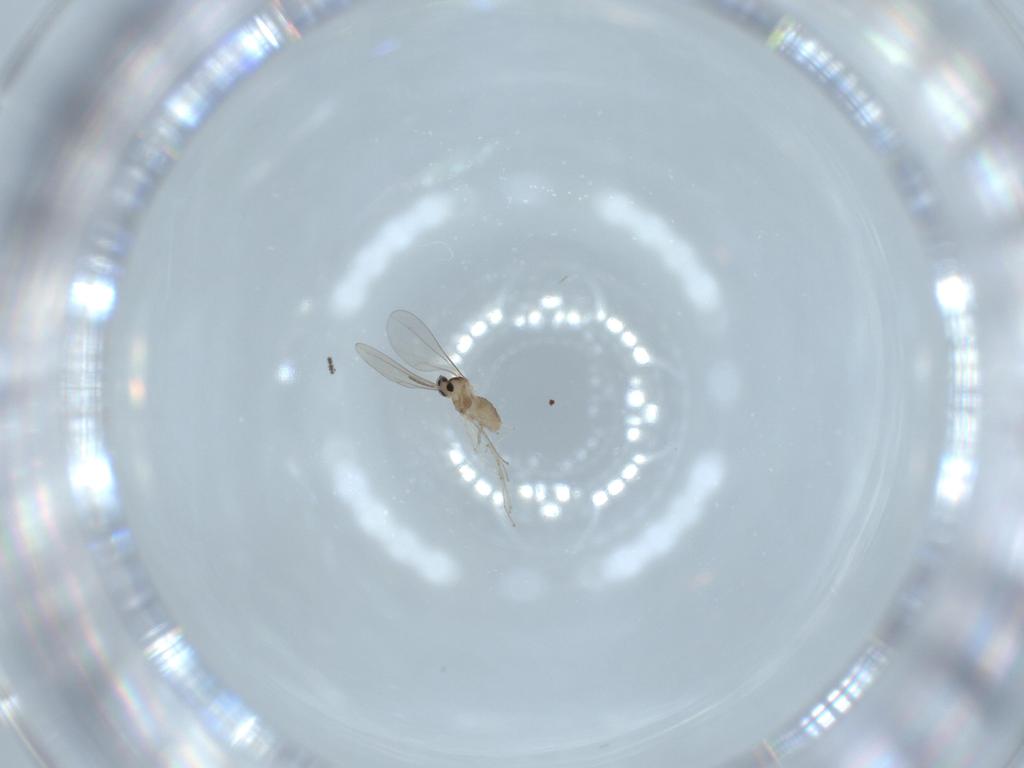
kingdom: Animalia
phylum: Arthropoda
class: Insecta
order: Diptera
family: Cecidomyiidae
